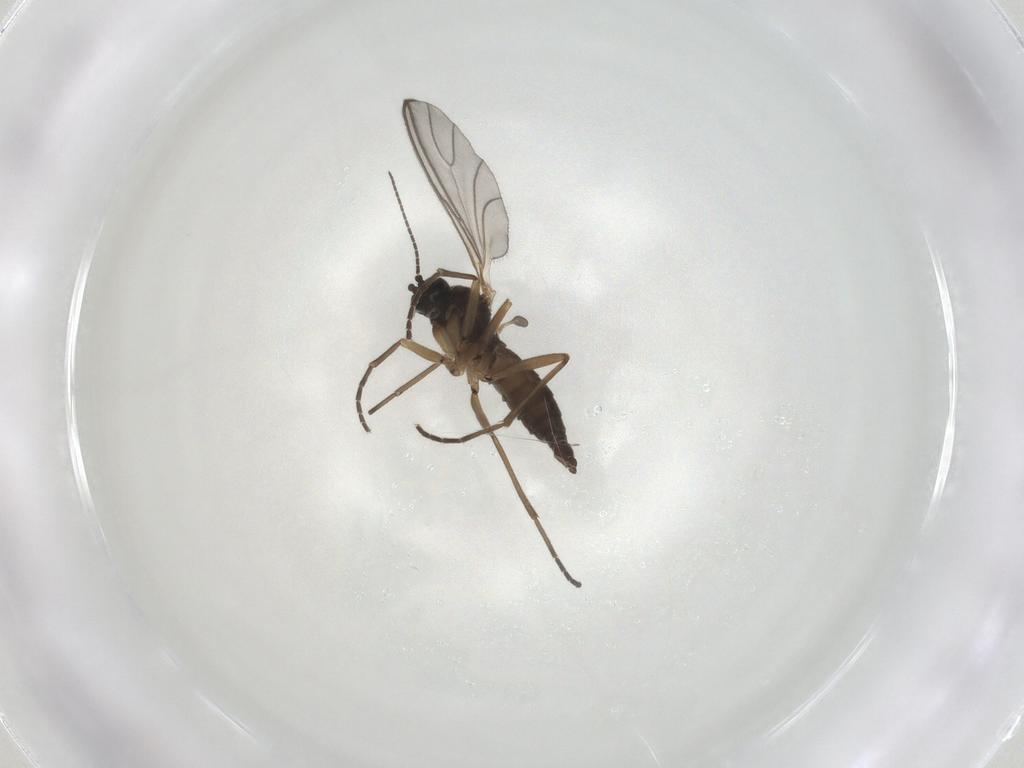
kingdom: Animalia
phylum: Arthropoda
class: Insecta
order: Diptera
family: Sciaridae
